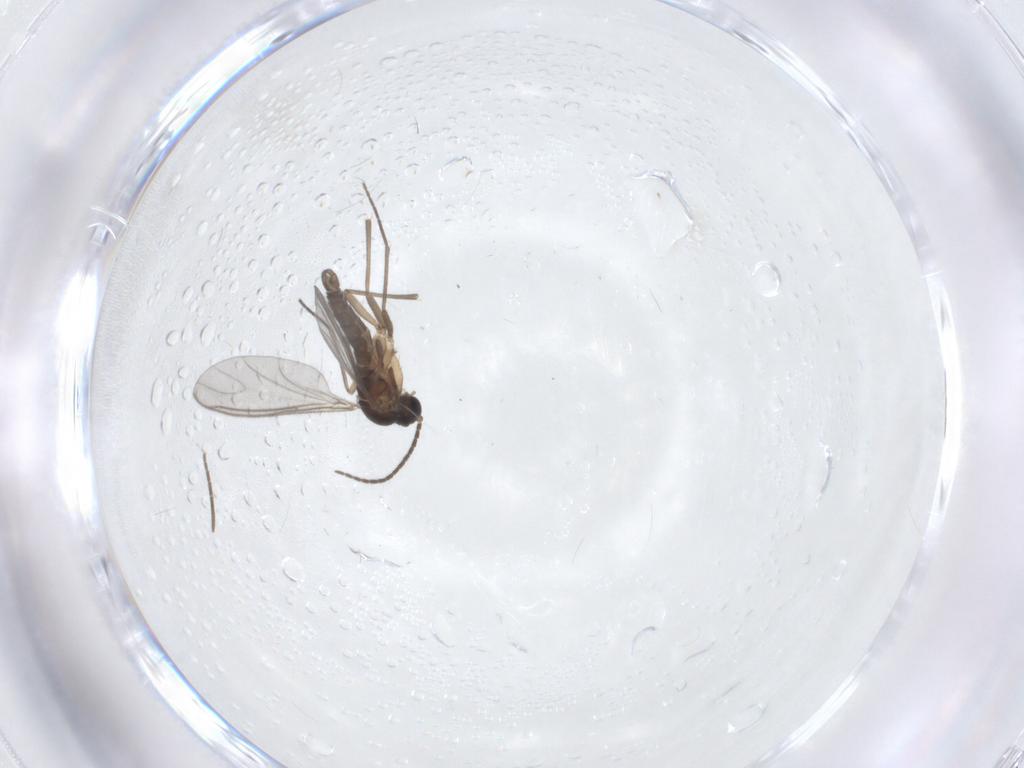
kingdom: Animalia
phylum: Arthropoda
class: Insecta
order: Diptera
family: Sciaridae
